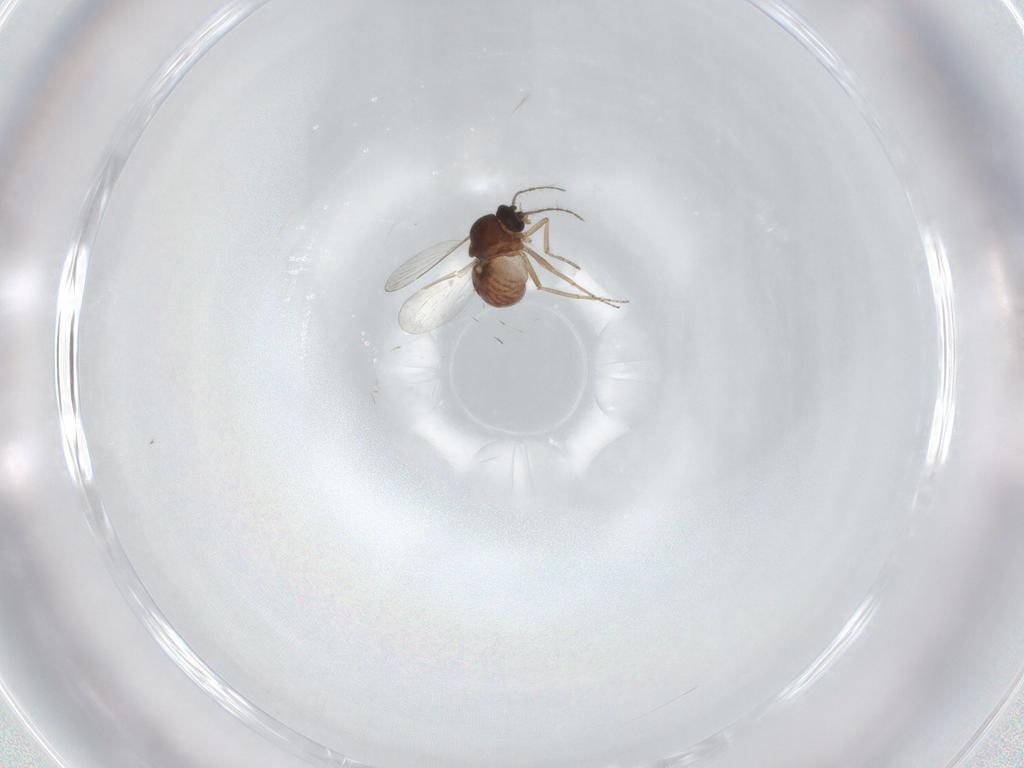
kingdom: Animalia
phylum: Arthropoda
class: Insecta
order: Diptera
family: Ceratopogonidae
